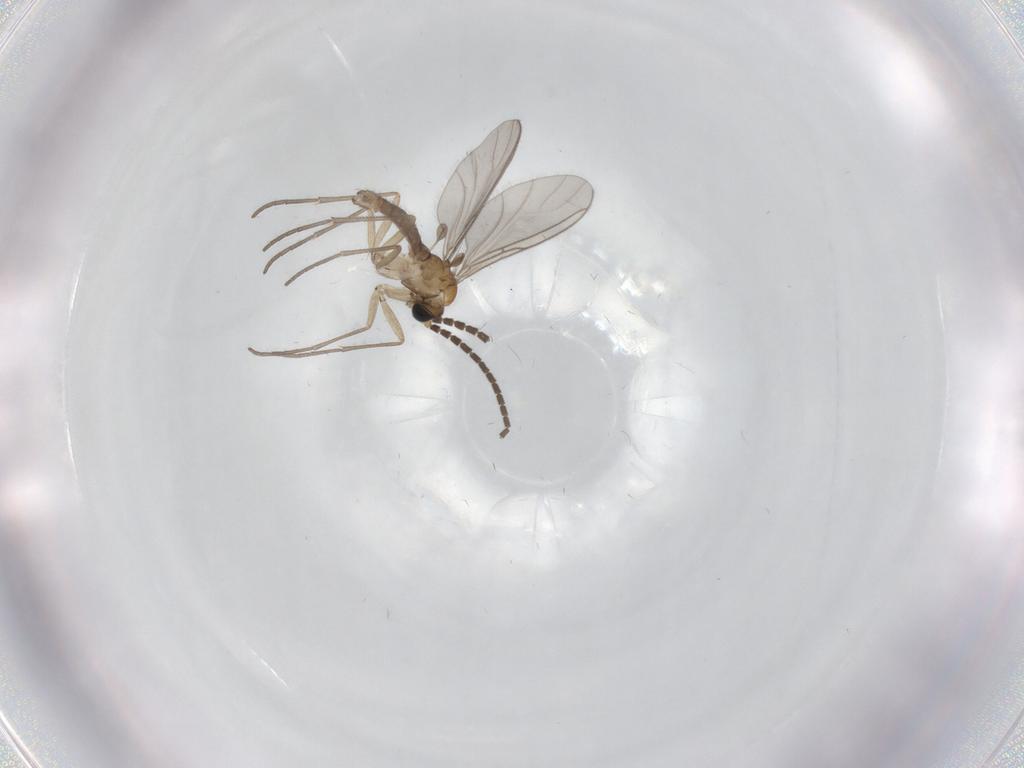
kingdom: Animalia
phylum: Arthropoda
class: Insecta
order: Diptera
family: Sciaridae
